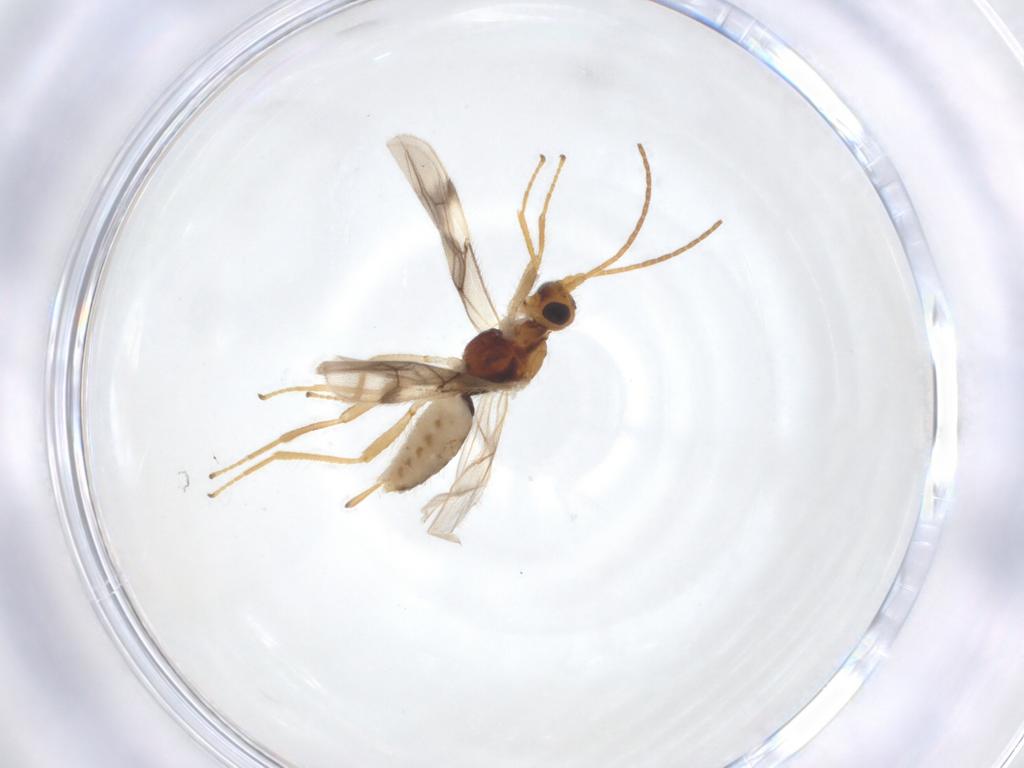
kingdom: Animalia
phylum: Arthropoda
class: Insecta
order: Hymenoptera
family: Braconidae
